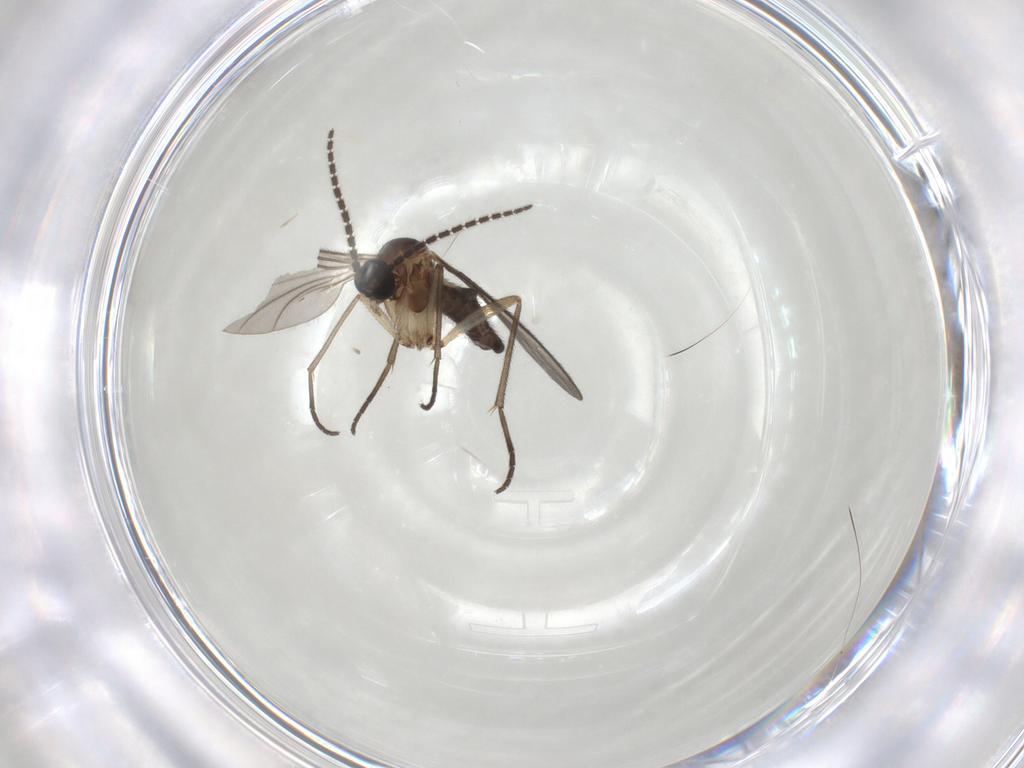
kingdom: Animalia
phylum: Arthropoda
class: Insecta
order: Diptera
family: Sciaridae
